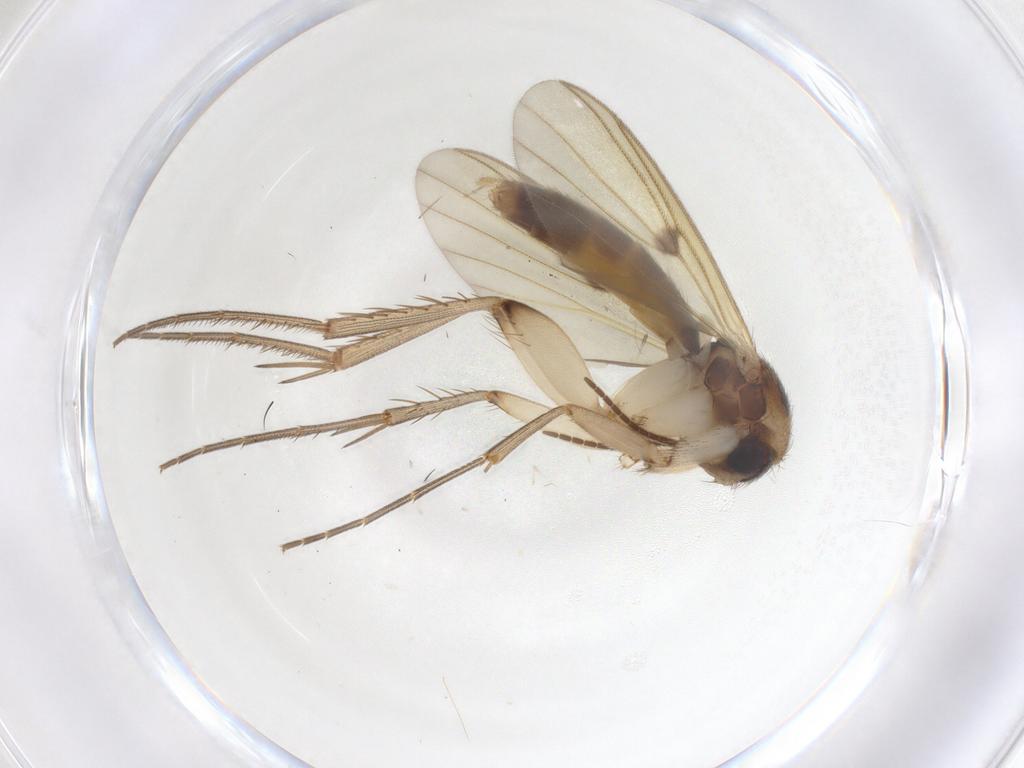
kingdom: Animalia
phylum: Arthropoda
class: Insecta
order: Diptera
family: Mycetophilidae
